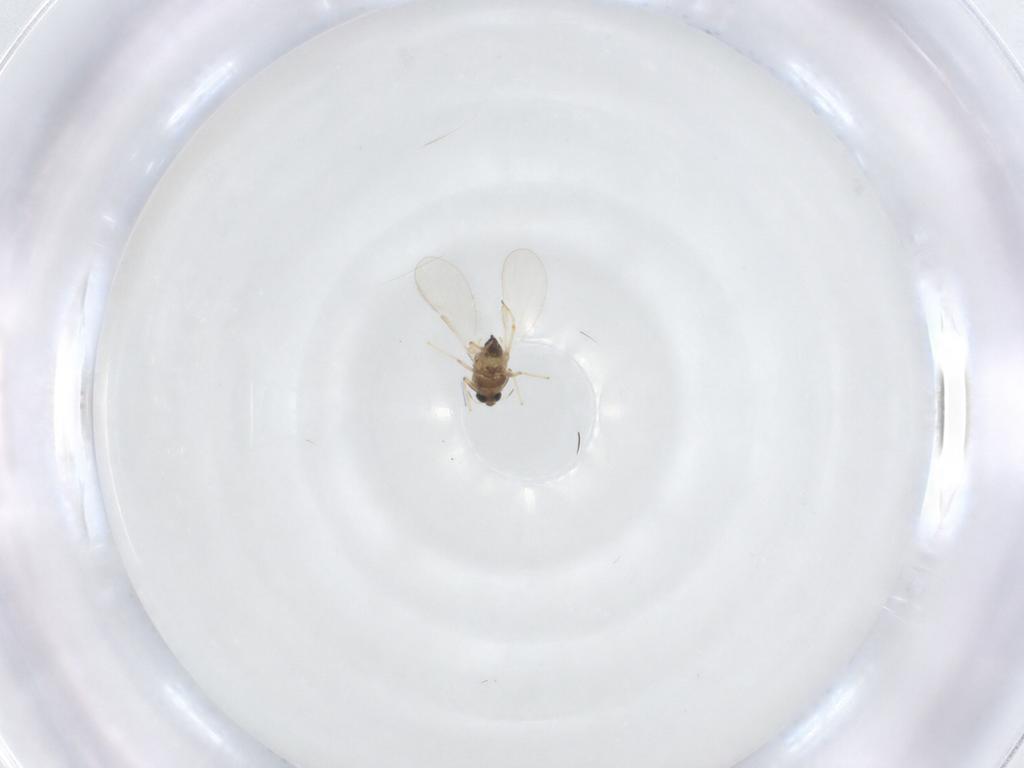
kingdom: Animalia
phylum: Arthropoda
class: Insecta
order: Diptera
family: Chironomidae
